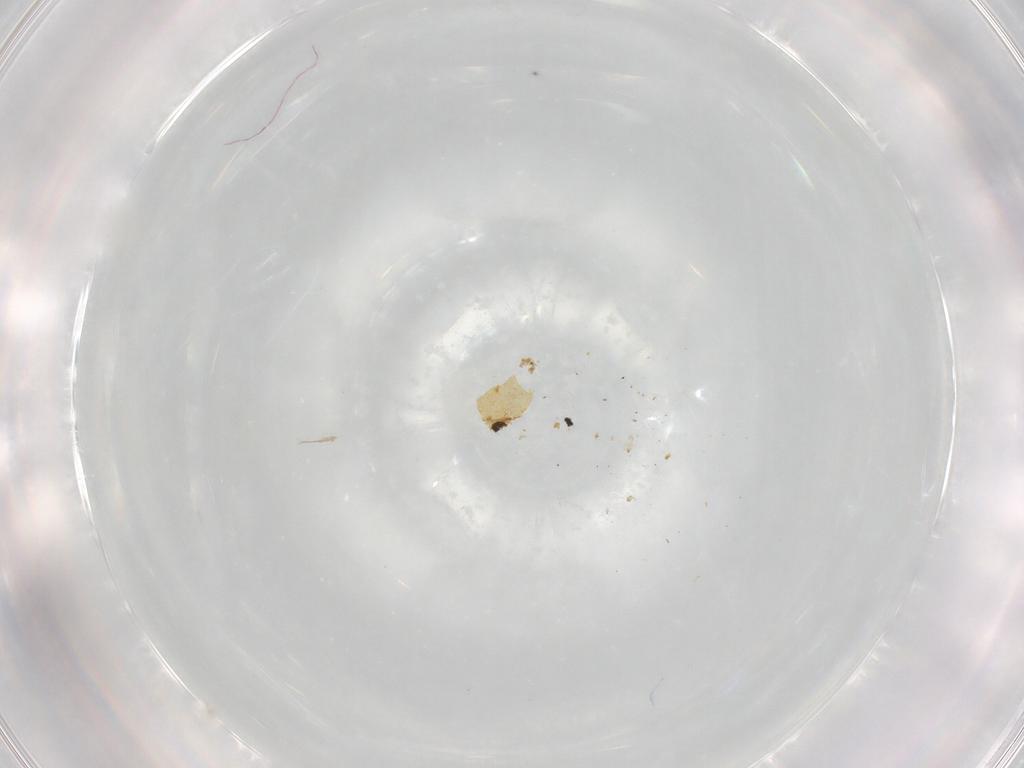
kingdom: Animalia
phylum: Arthropoda
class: Insecta
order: Hymenoptera
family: Eulophidae
